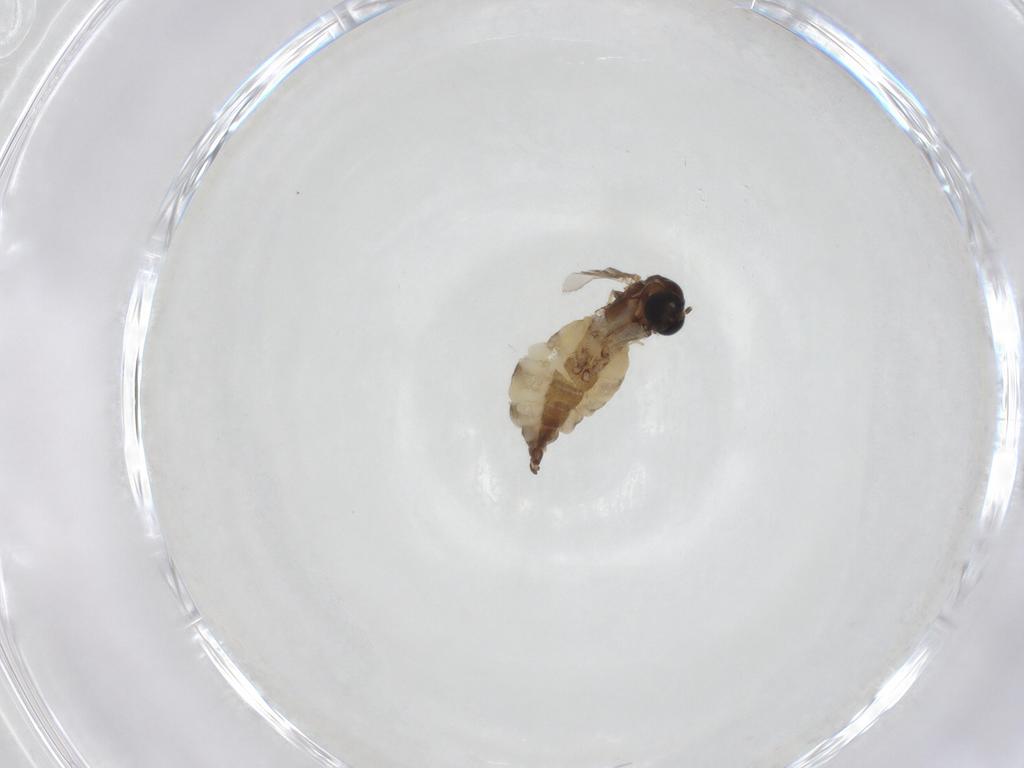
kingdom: Animalia
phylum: Arthropoda
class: Insecta
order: Diptera
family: Sciaridae
